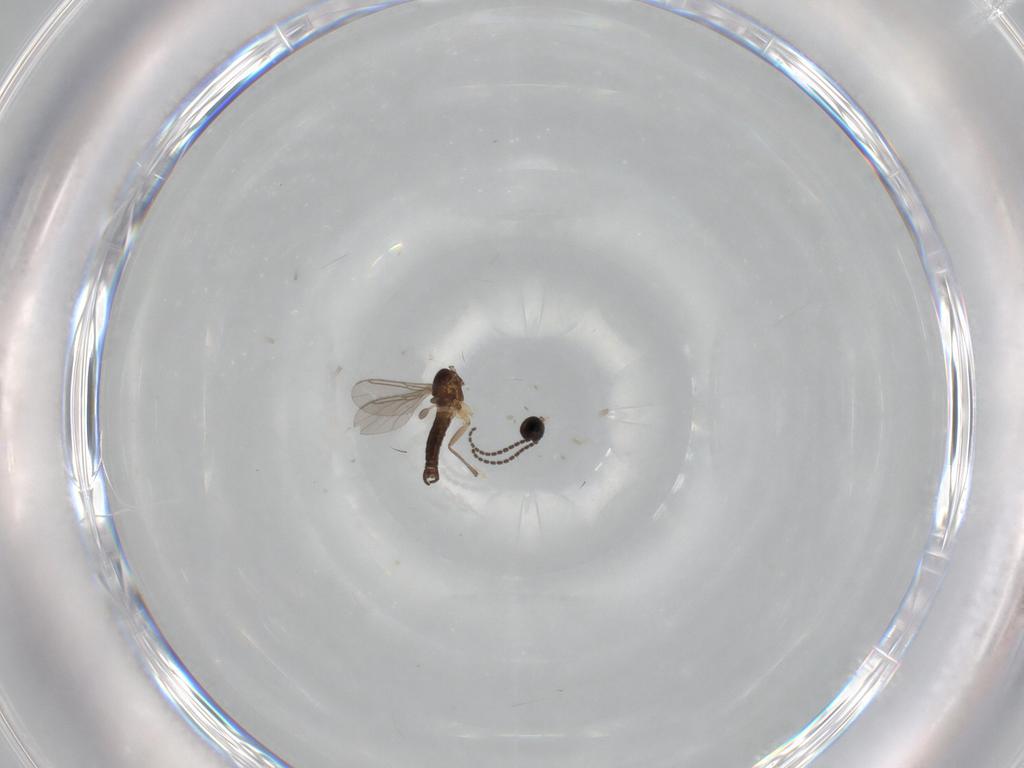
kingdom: Animalia
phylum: Arthropoda
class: Insecta
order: Diptera
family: Sciaridae
